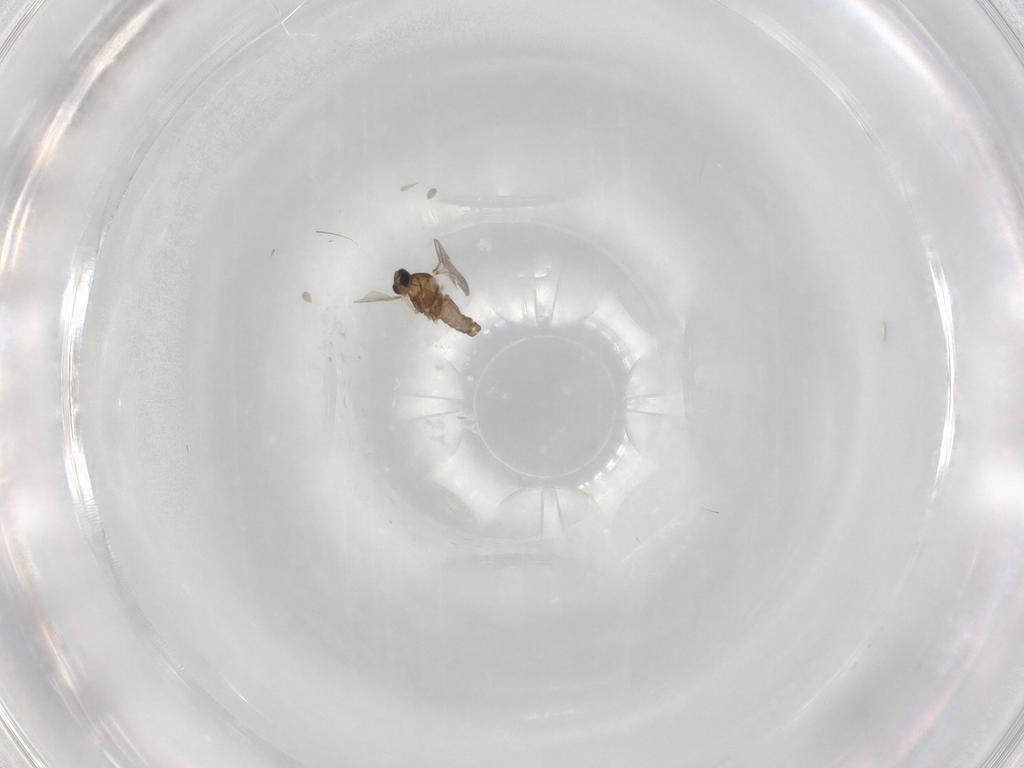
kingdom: Animalia
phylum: Arthropoda
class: Insecta
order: Diptera
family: Cecidomyiidae
